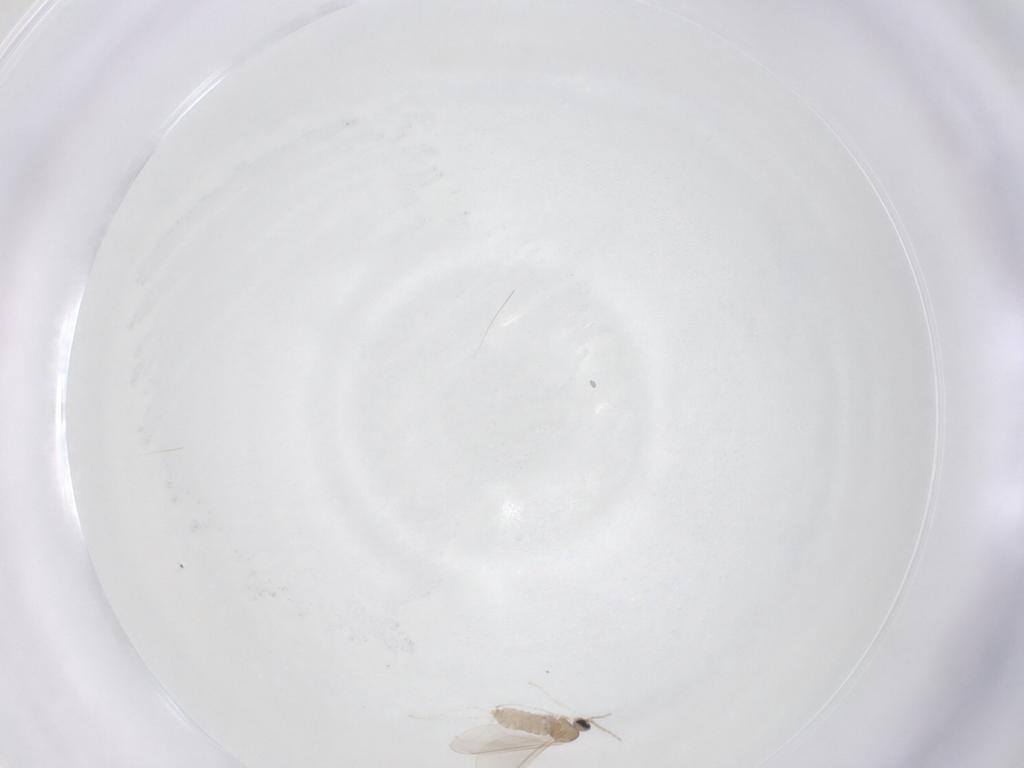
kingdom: Animalia
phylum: Arthropoda
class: Insecta
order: Diptera
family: Cecidomyiidae
